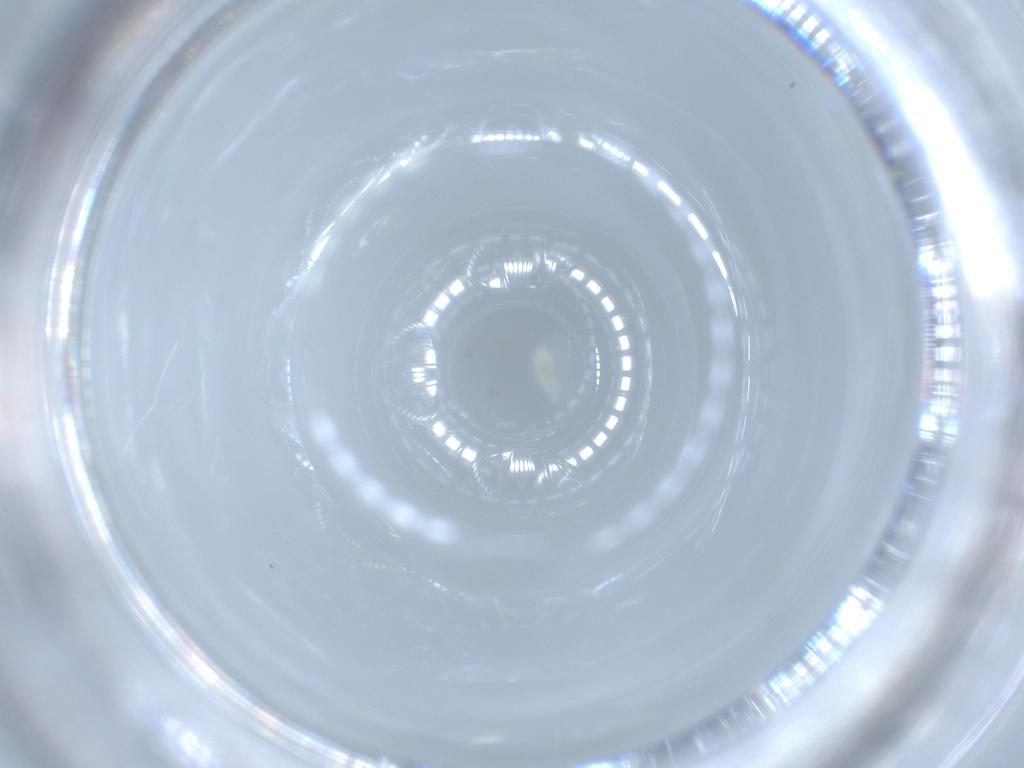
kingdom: Animalia
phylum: Arthropoda
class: Arachnida
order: Trombidiformes
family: Eupodidae
